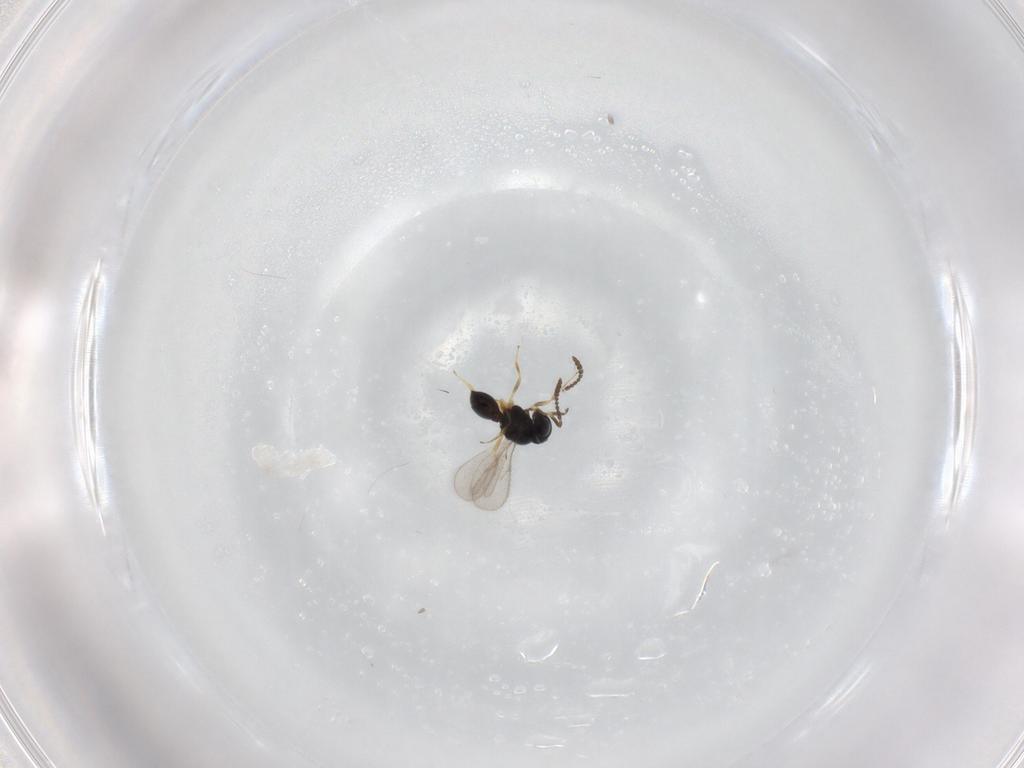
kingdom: Animalia
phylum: Arthropoda
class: Insecta
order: Hymenoptera
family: Scelionidae
